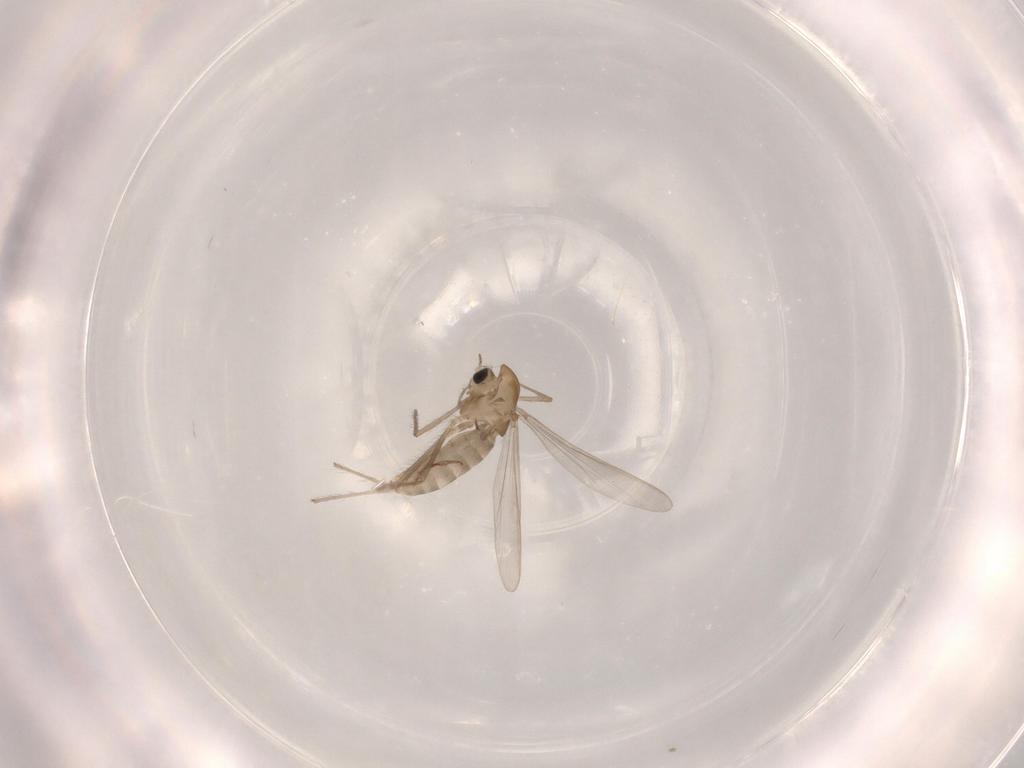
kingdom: Animalia
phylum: Arthropoda
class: Insecta
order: Diptera
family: Chironomidae
